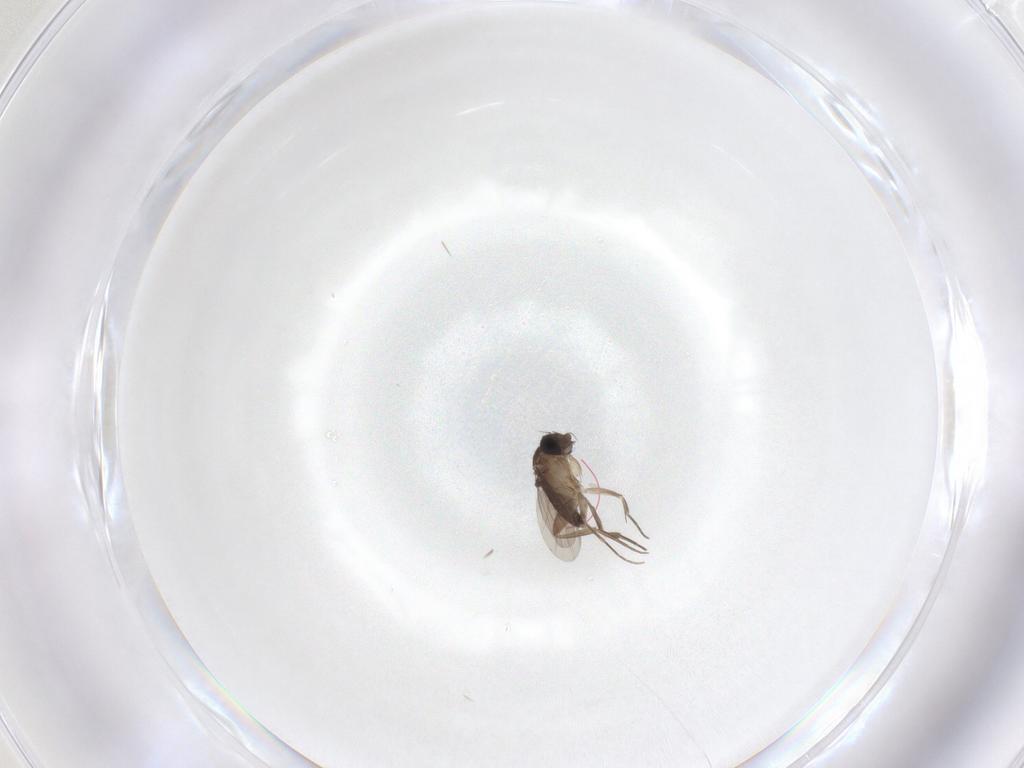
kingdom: Animalia
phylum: Arthropoda
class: Insecta
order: Diptera
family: Phoridae
